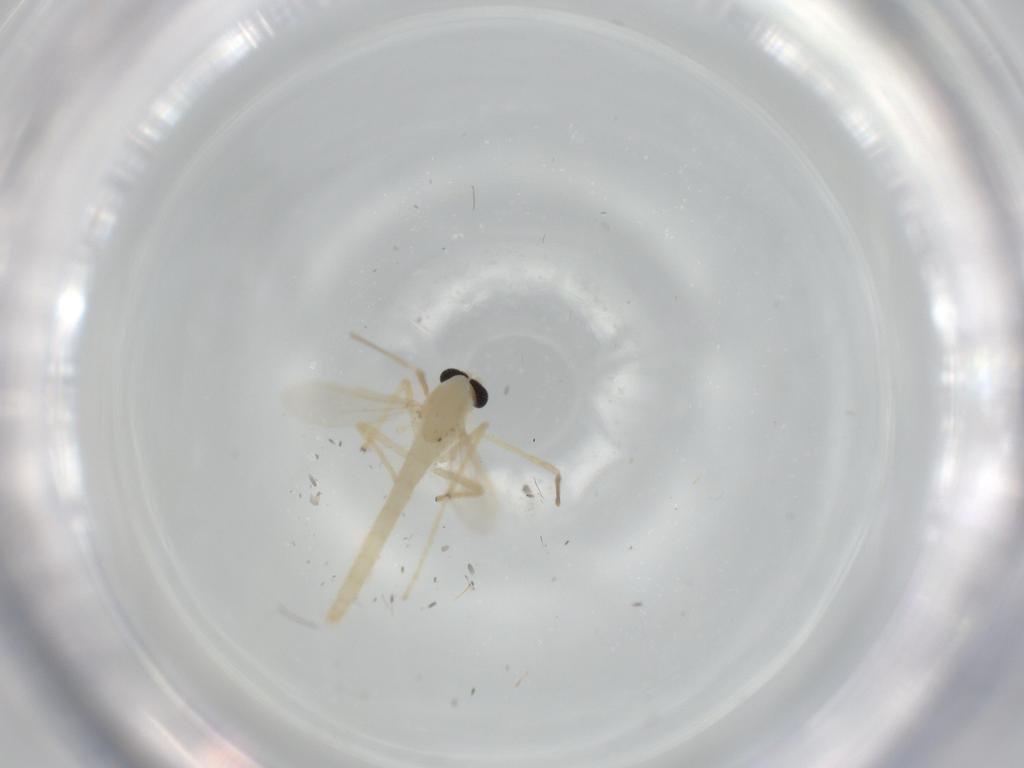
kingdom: Animalia
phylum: Arthropoda
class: Insecta
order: Diptera
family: Chironomidae
